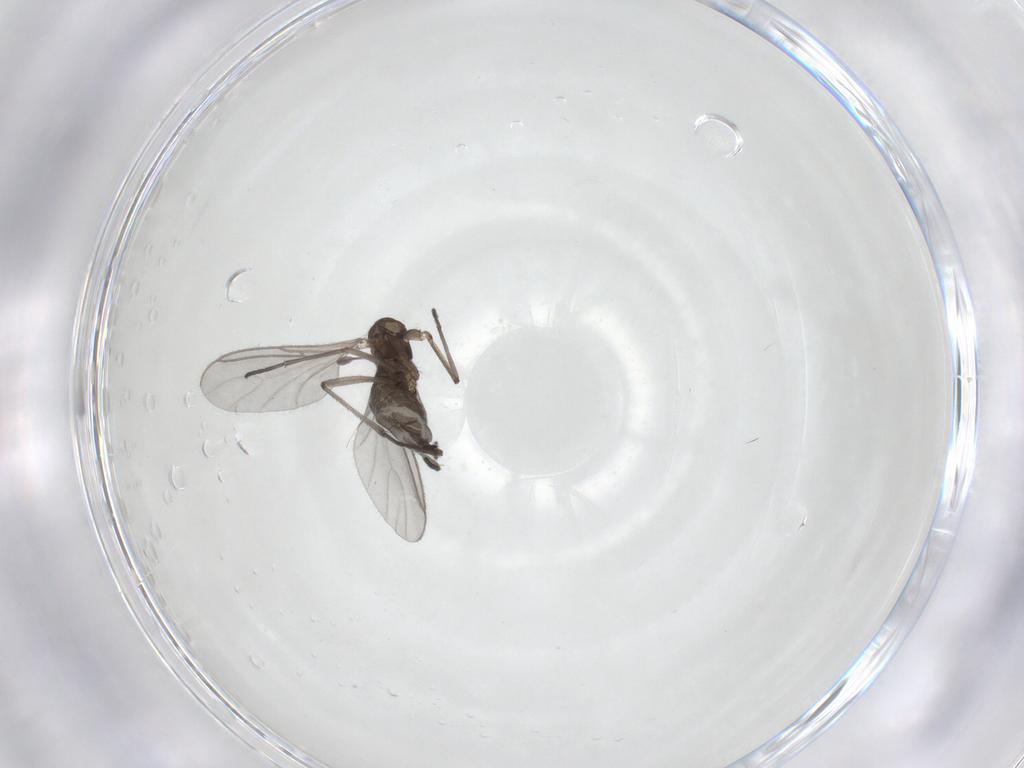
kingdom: Animalia
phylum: Arthropoda
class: Insecta
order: Diptera
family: Sciaridae
